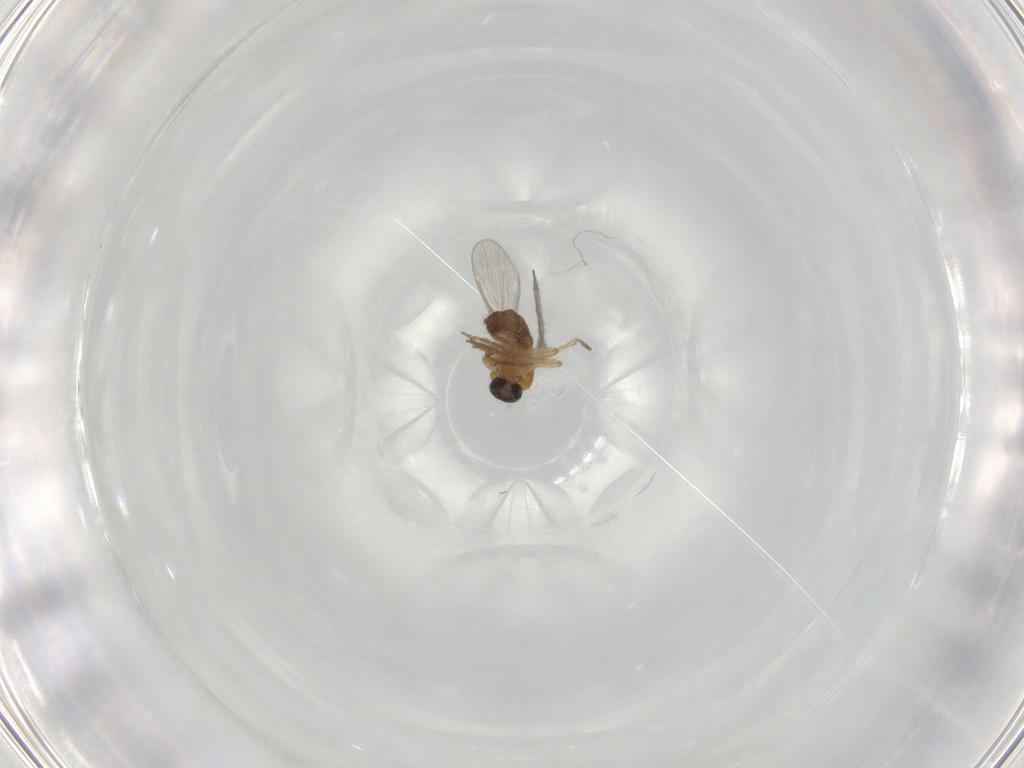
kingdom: Animalia
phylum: Arthropoda
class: Insecta
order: Diptera
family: Ceratopogonidae
